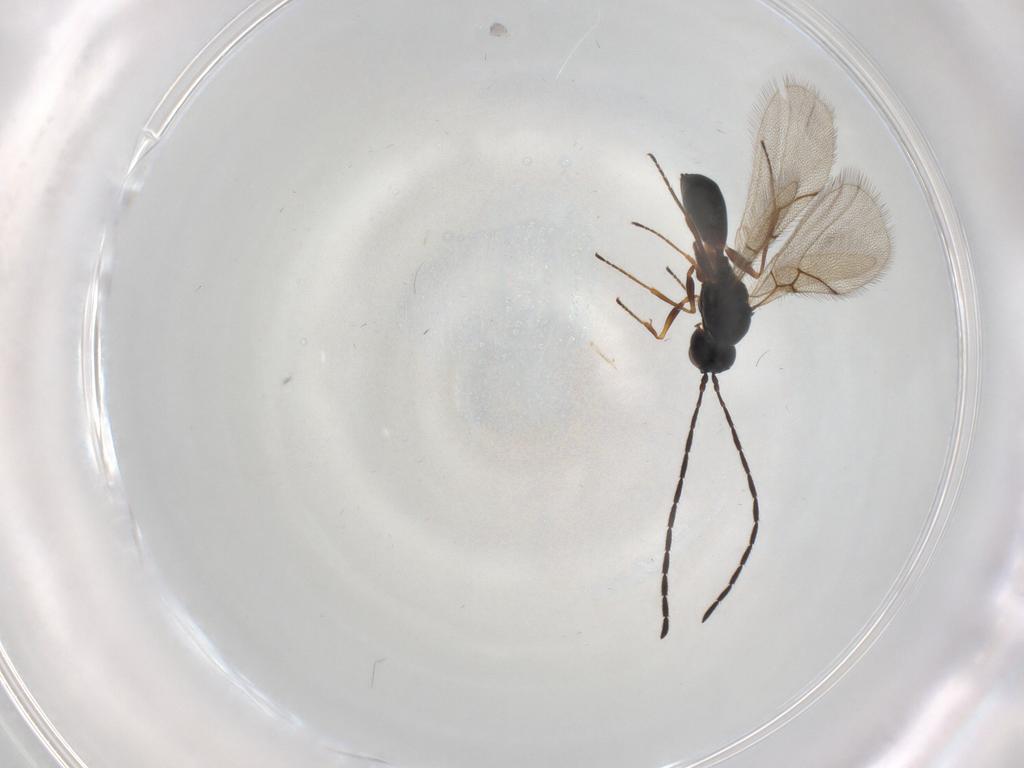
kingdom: Animalia
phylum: Arthropoda
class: Insecta
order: Hymenoptera
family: Figitidae
